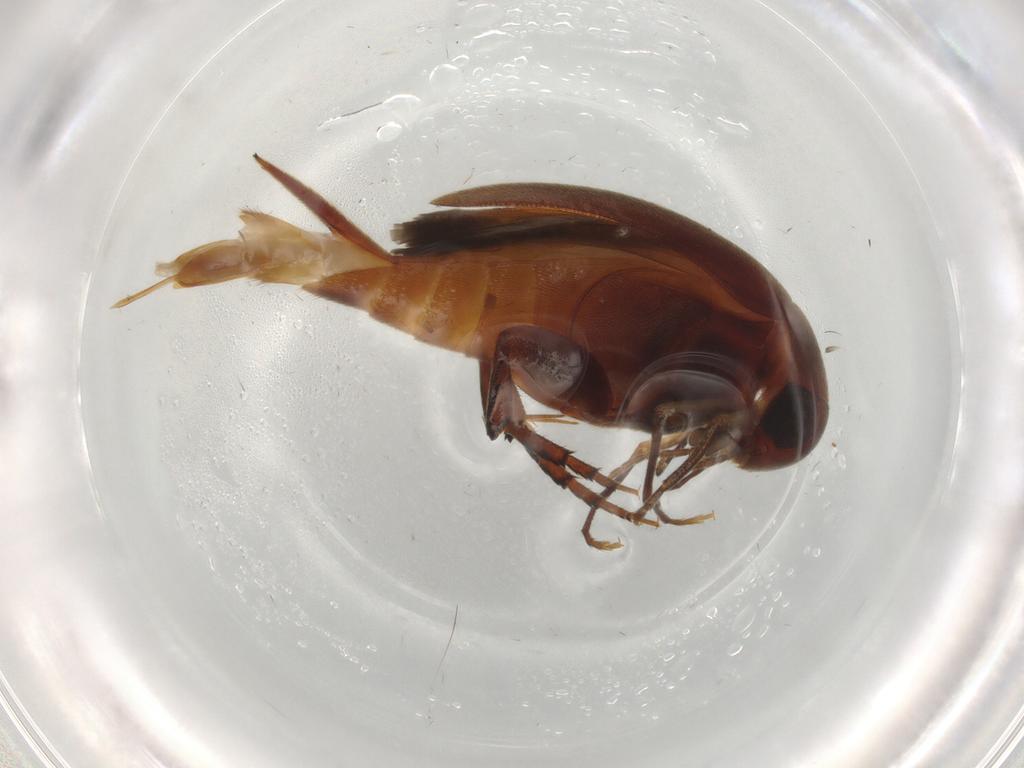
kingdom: Animalia
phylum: Arthropoda
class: Insecta
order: Coleoptera
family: Mordellidae
